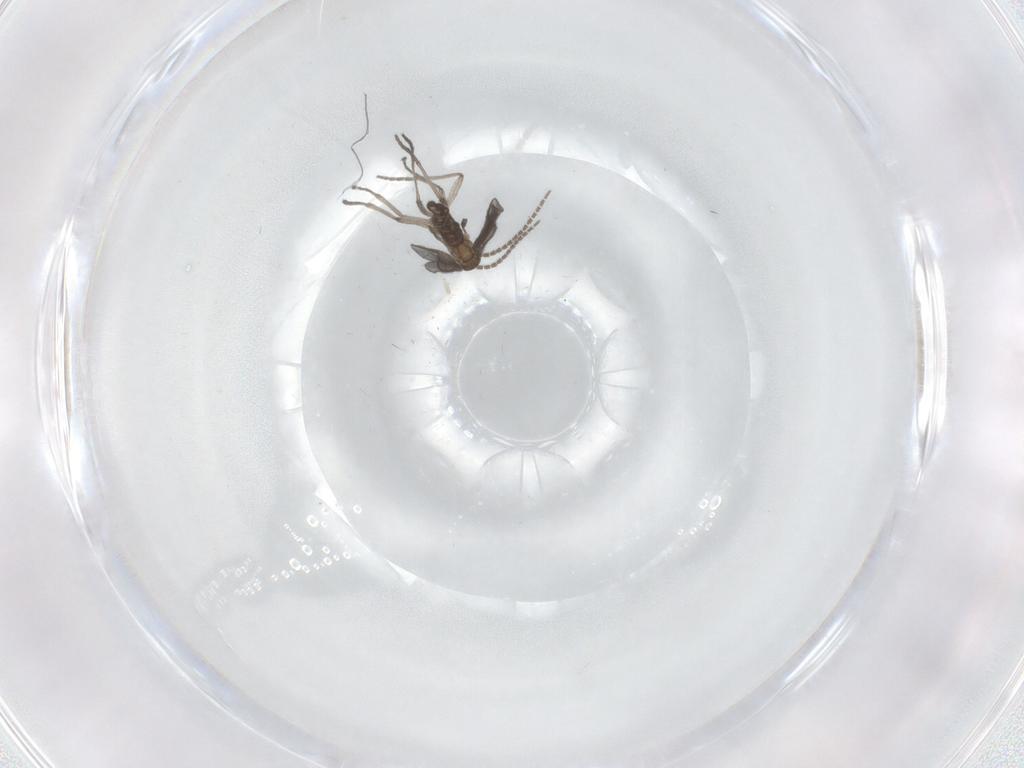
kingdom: Animalia
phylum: Arthropoda
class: Insecta
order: Diptera
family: Sciaridae
